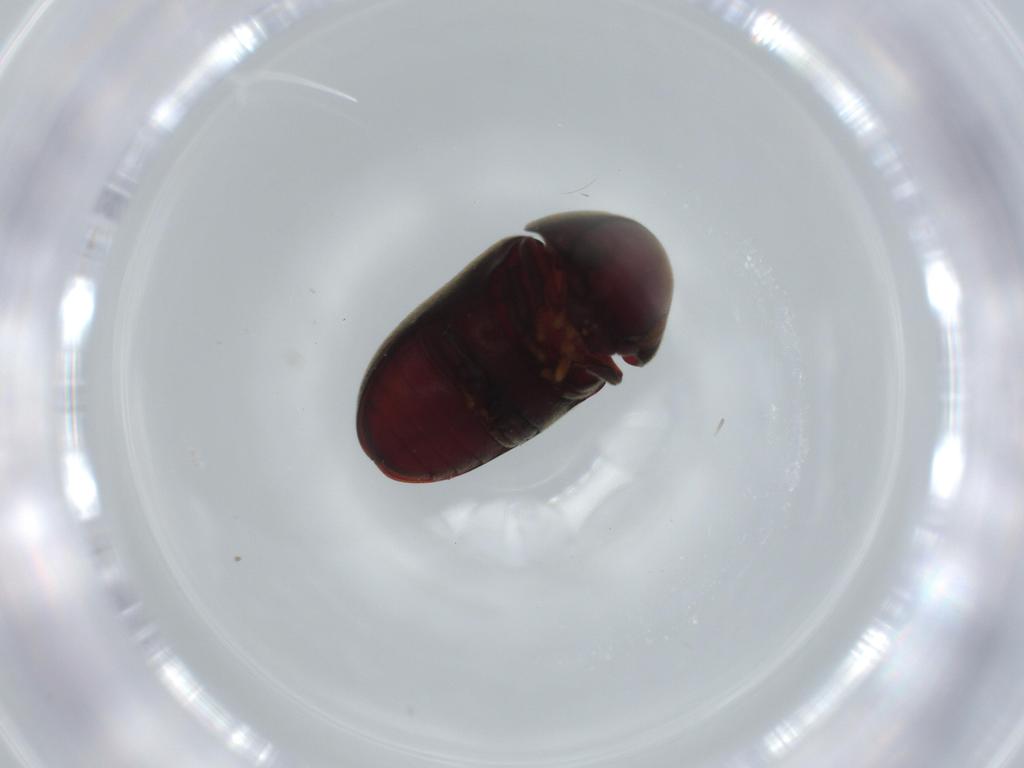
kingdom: Animalia
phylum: Arthropoda
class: Insecta
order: Coleoptera
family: Ptinidae
